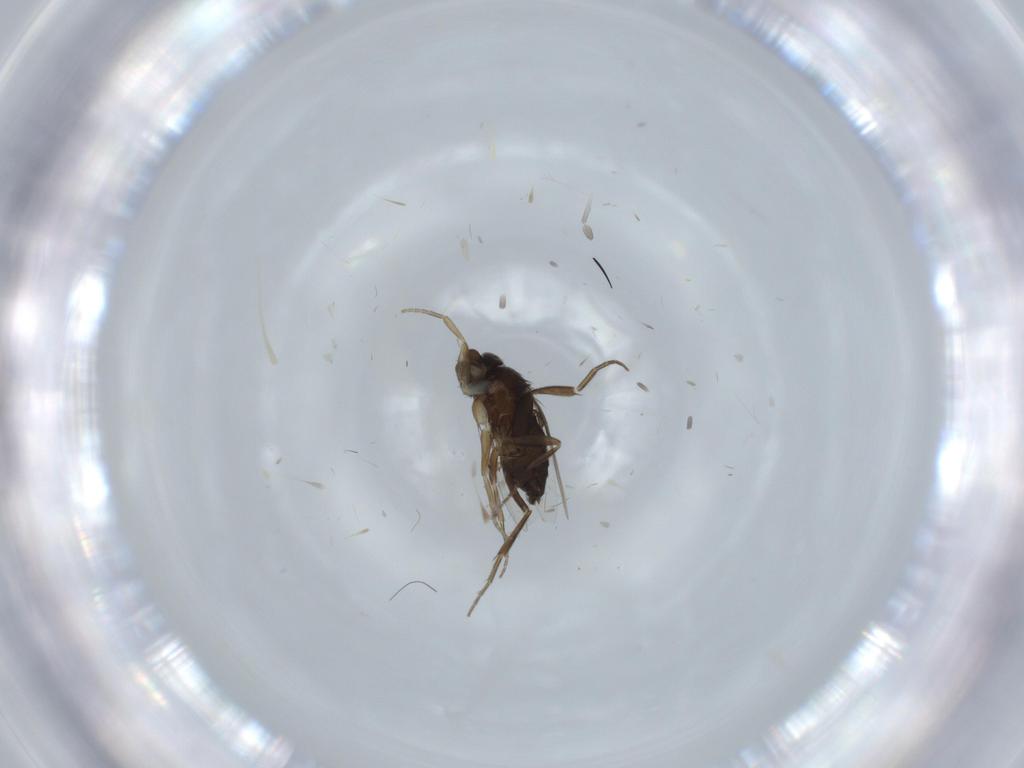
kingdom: Animalia
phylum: Arthropoda
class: Insecta
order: Diptera
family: Phoridae
